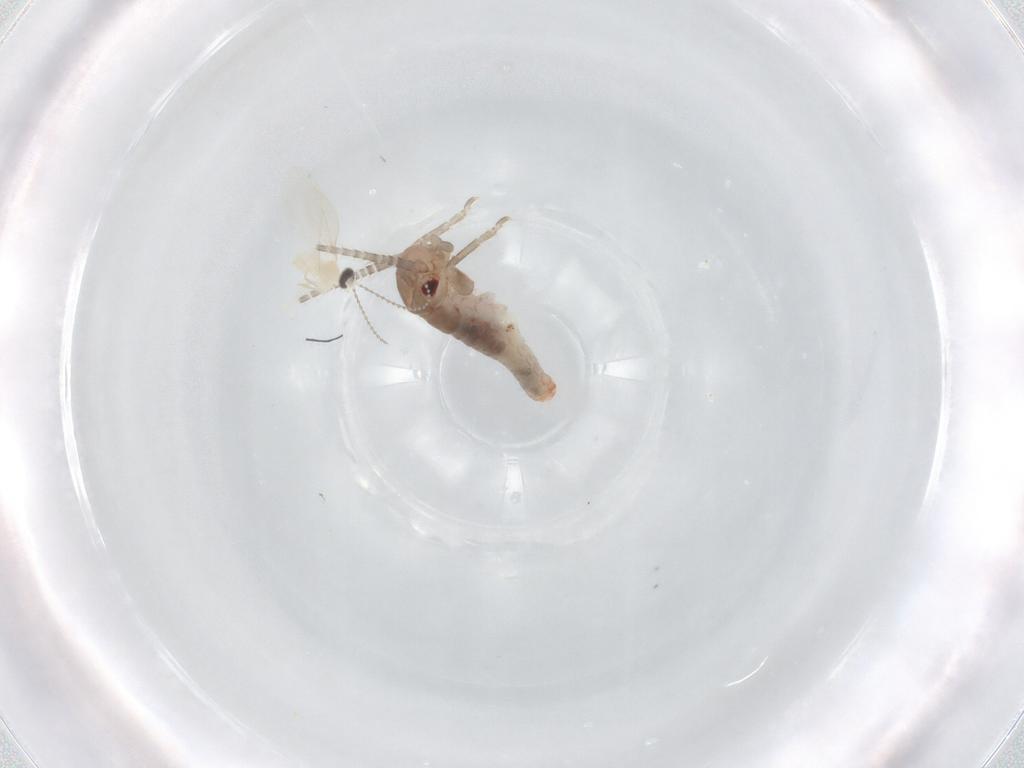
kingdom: Animalia
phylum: Arthropoda
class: Insecta
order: Orthoptera
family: Gryllidae
